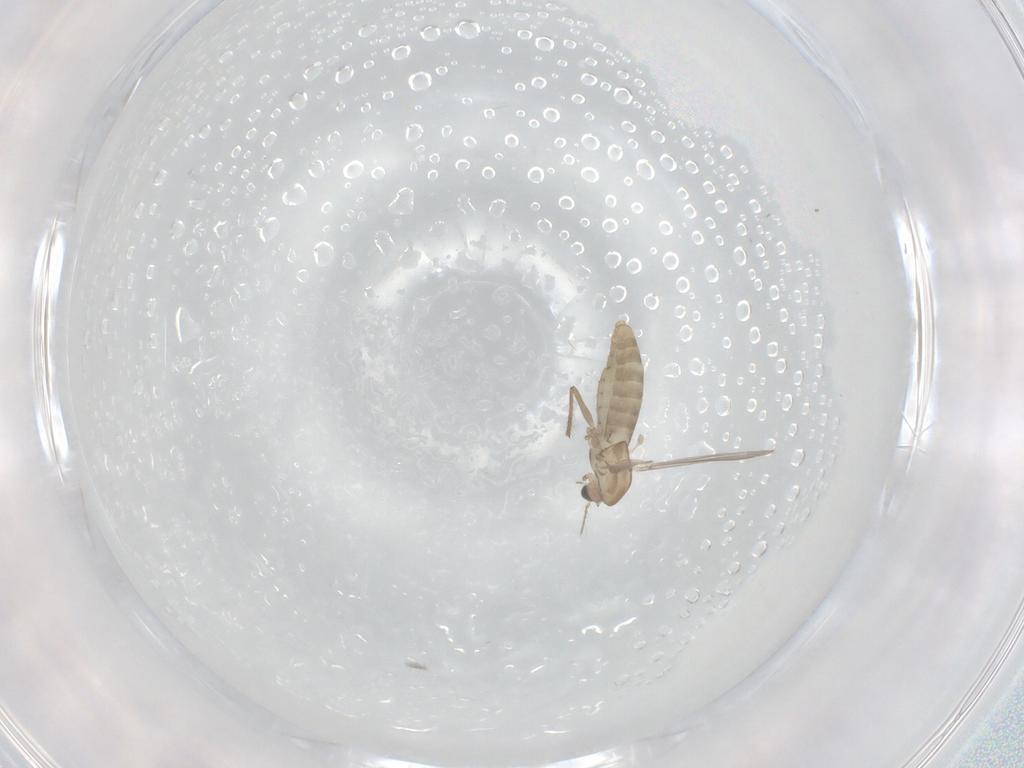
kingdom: Animalia
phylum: Arthropoda
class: Insecta
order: Diptera
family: Chironomidae
